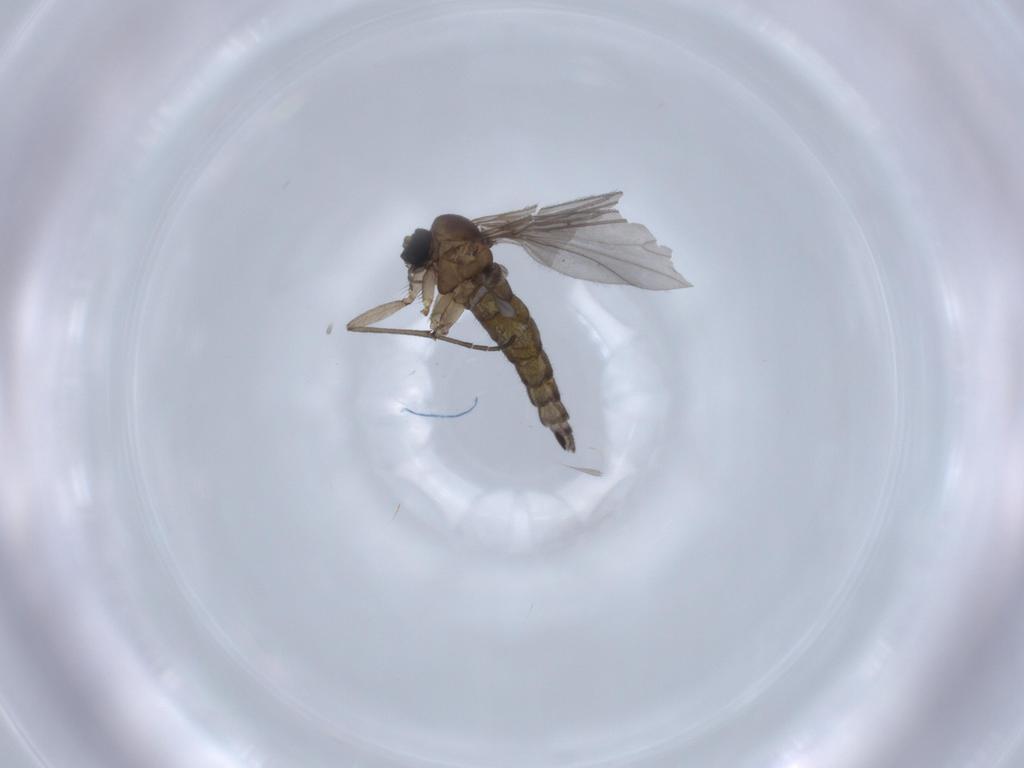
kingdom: Animalia
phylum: Arthropoda
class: Insecta
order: Diptera
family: Sciaridae
